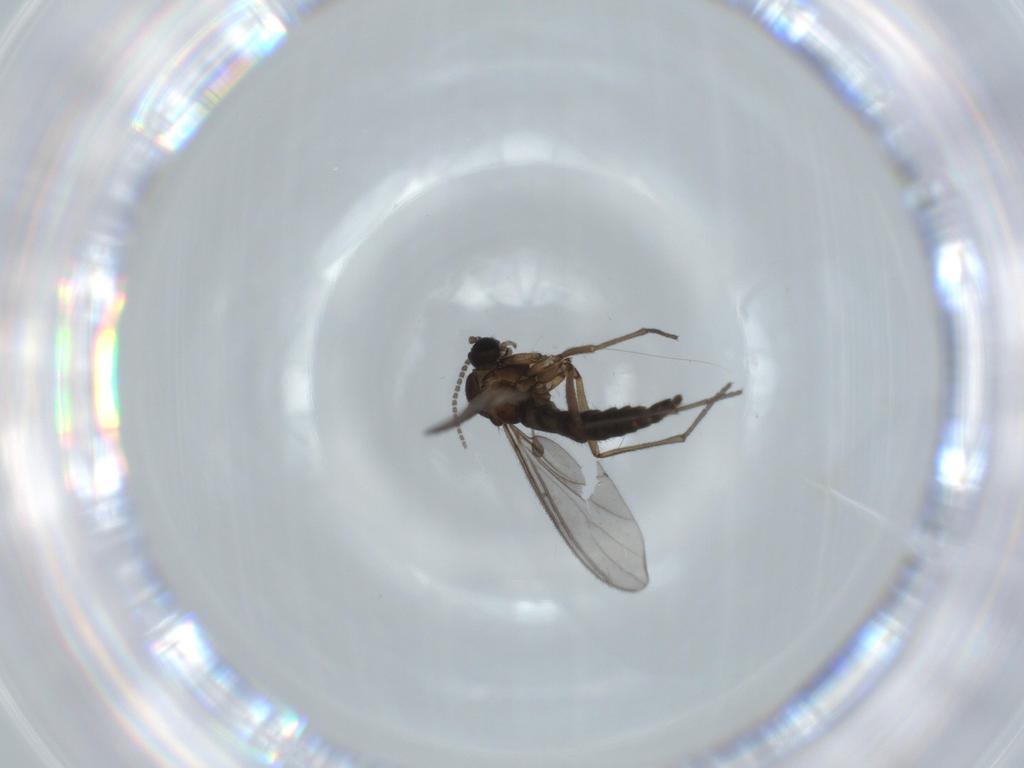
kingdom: Animalia
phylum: Arthropoda
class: Insecta
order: Diptera
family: Sciaridae
